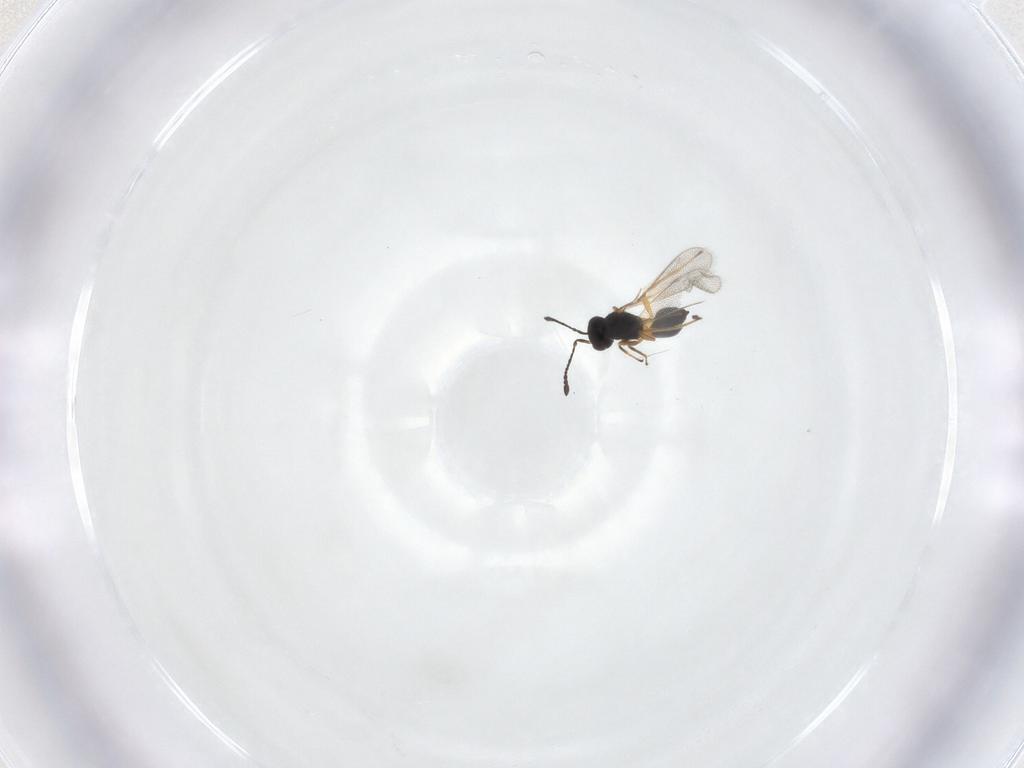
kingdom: Animalia
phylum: Arthropoda
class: Insecta
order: Hymenoptera
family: Mymaridae
